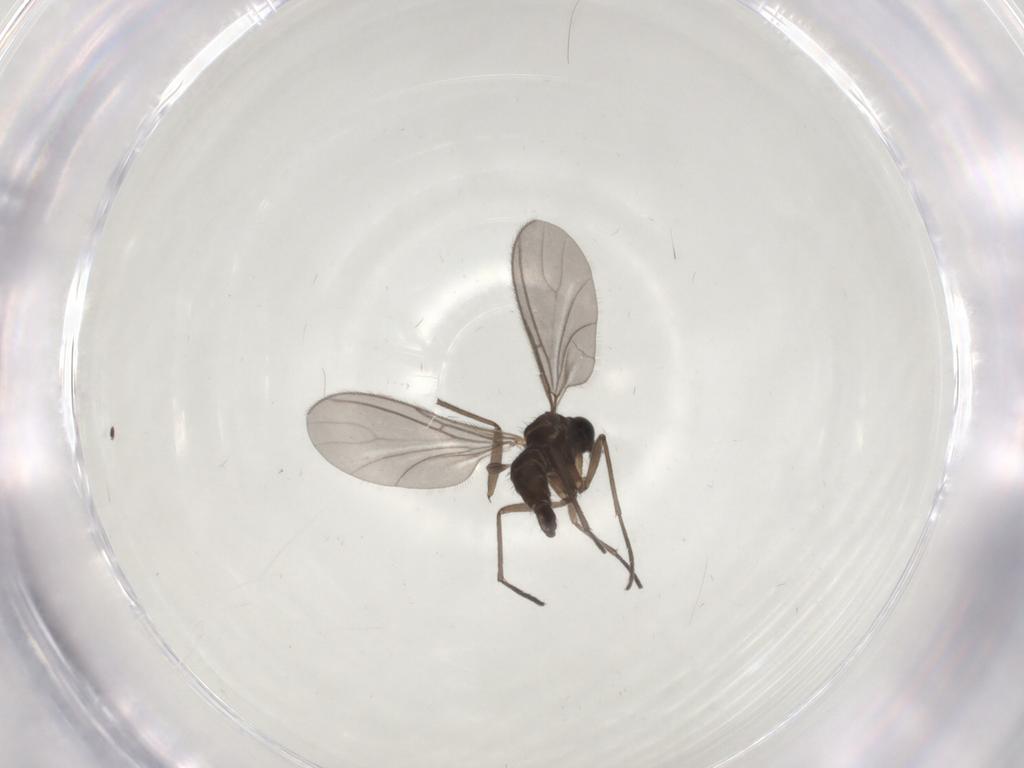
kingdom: Animalia
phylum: Arthropoda
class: Insecta
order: Diptera
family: Sciaridae
